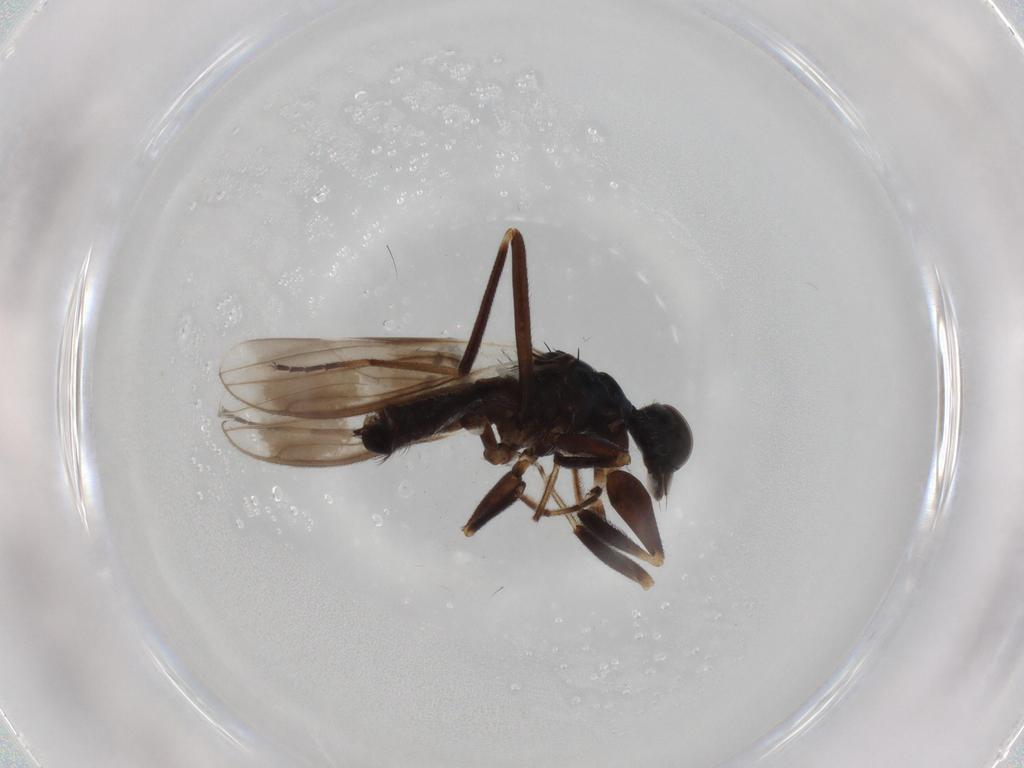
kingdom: Animalia
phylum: Arthropoda
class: Insecta
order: Diptera
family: Hybotidae
